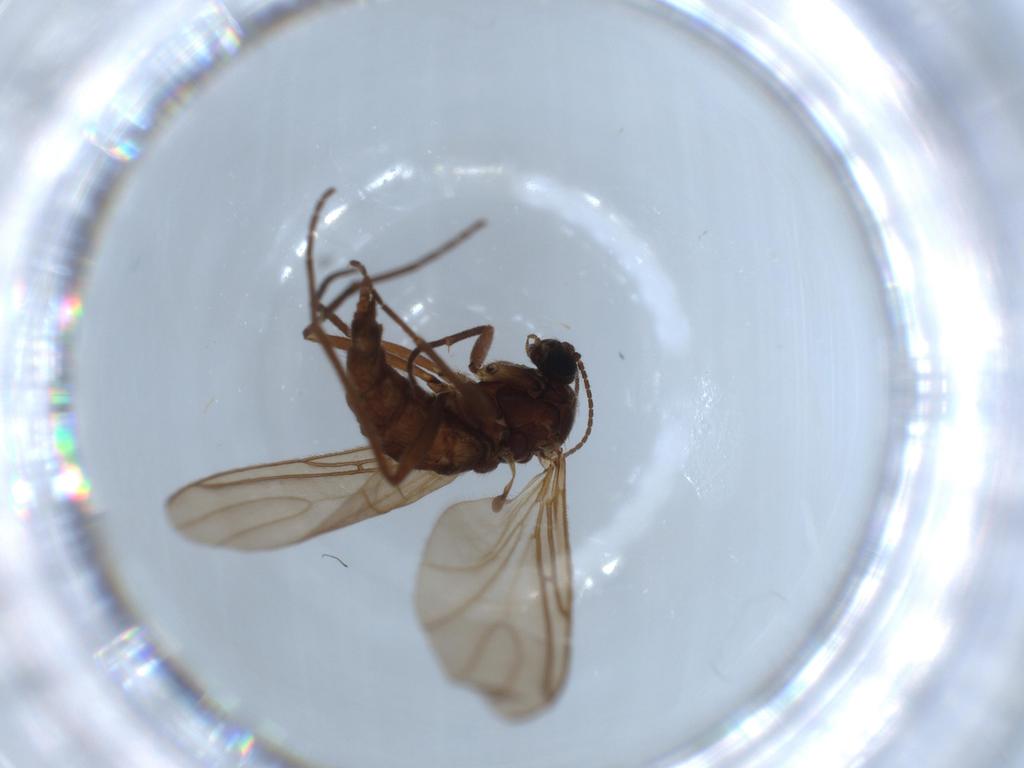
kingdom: Animalia
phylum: Arthropoda
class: Insecta
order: Diptera
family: Sciaridae
